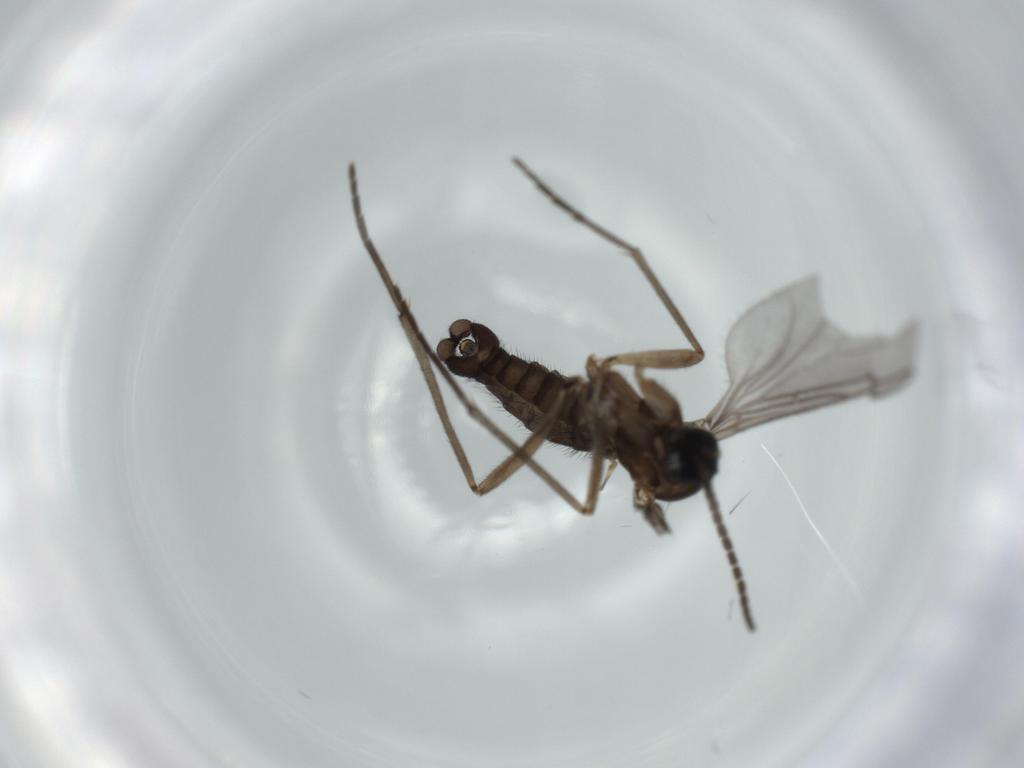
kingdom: Animalia
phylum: Arthropoda
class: Insecta
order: Diptera
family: Sciaridae
